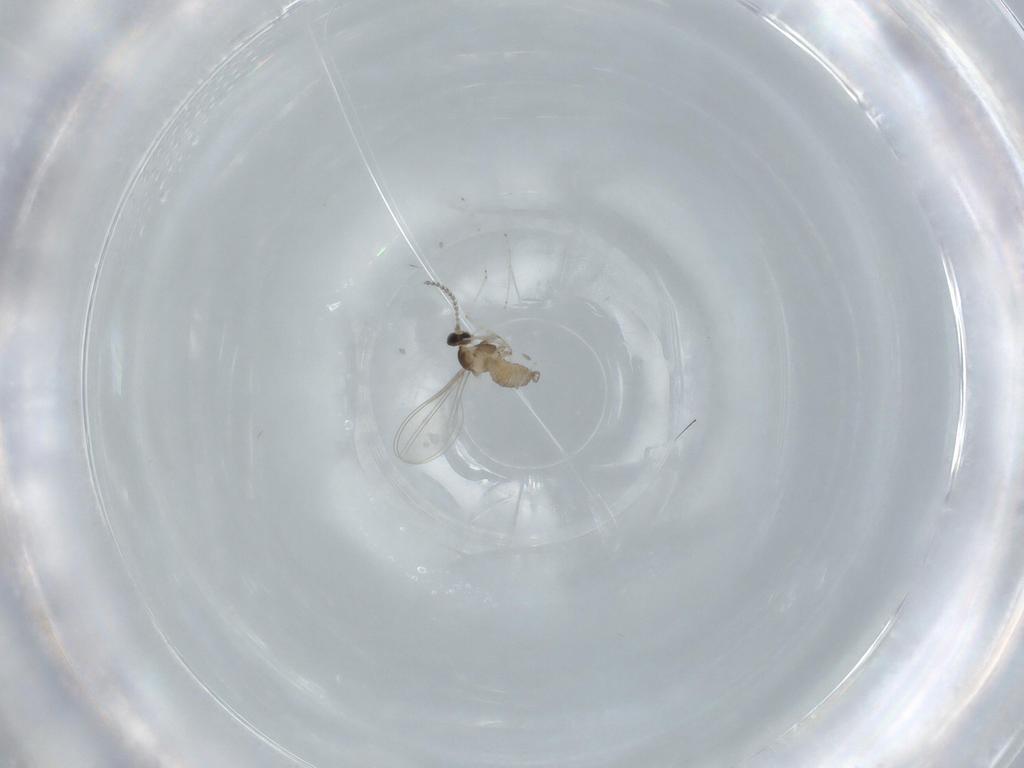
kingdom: Animalia
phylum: Arthropoda
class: Insecta
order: Diptera
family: Cecidomyiidae
